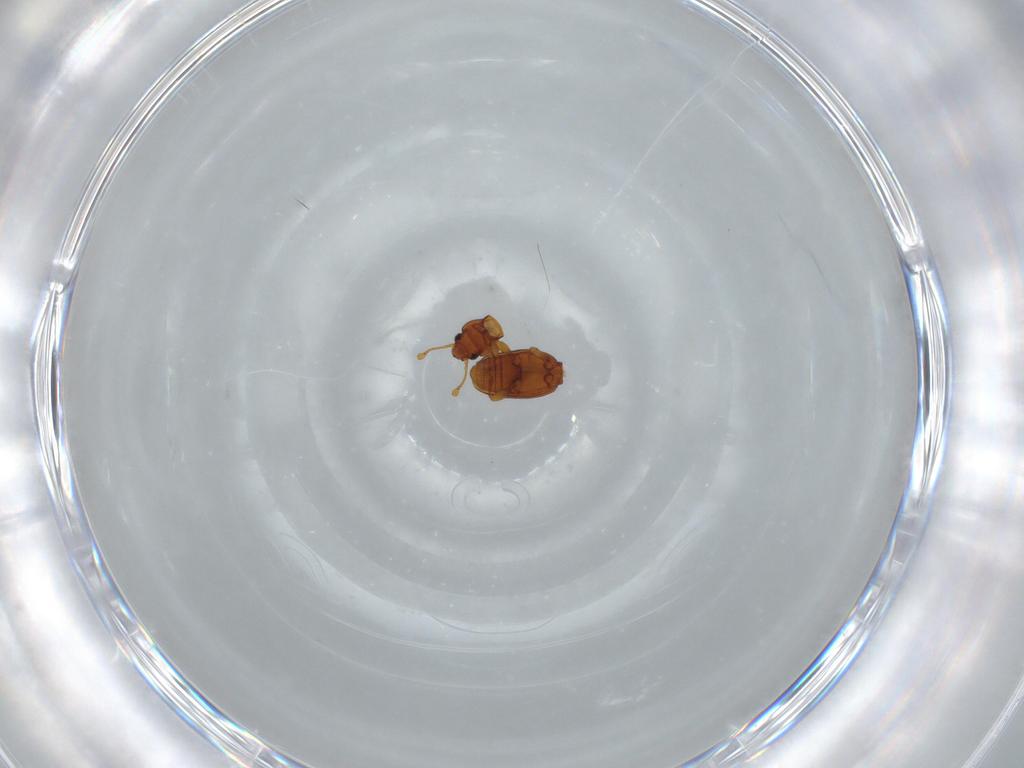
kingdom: Animalia
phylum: Arthropoda
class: Insecta
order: Coleoptera
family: Endomychidae
